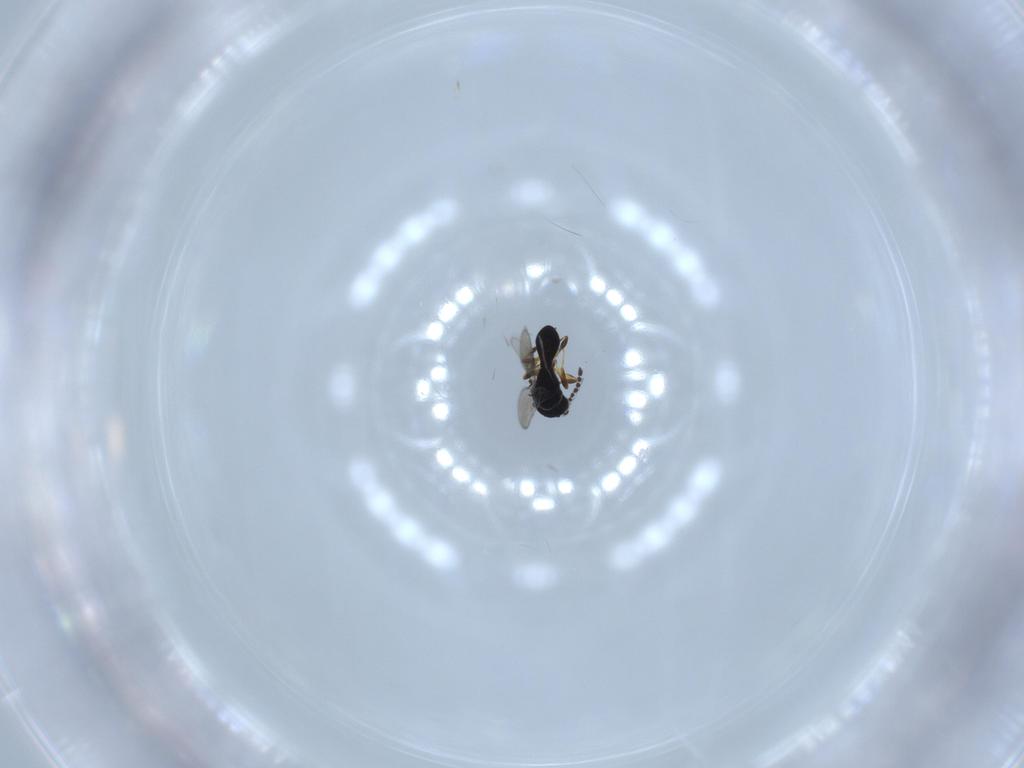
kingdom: Animalia
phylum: Arthropoda
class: Insecta
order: Hymenoptera
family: Platygastridae
